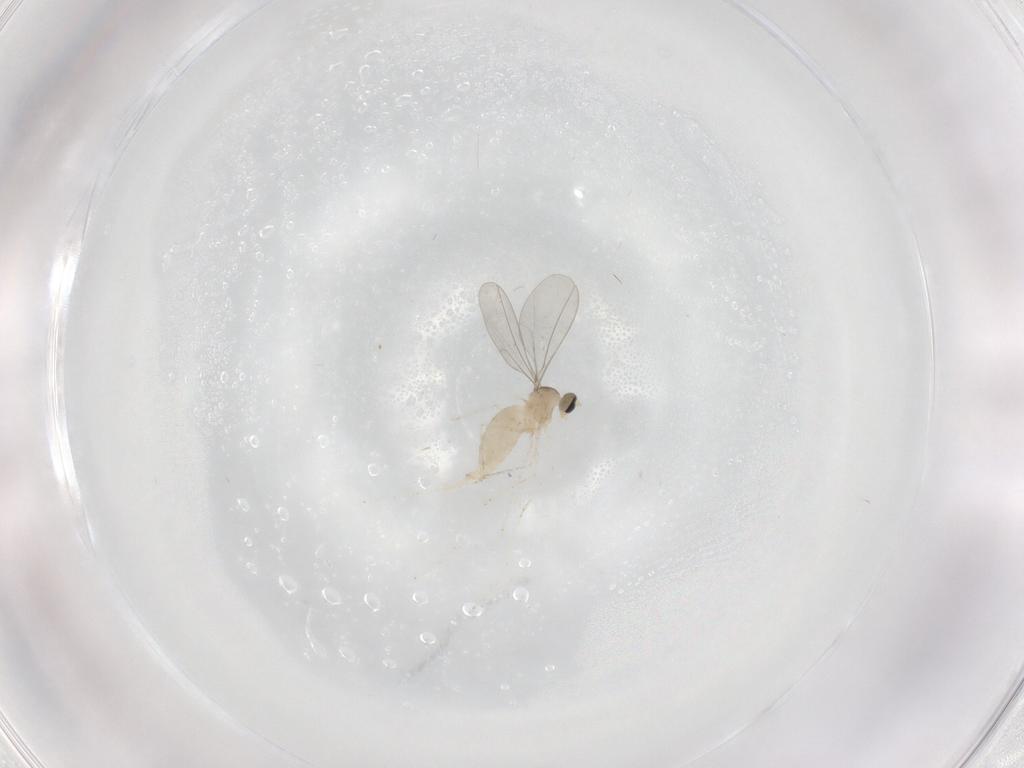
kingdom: Animalia
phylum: Arthropoda
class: Insecta
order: Diptera
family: Cecidomyiidae
